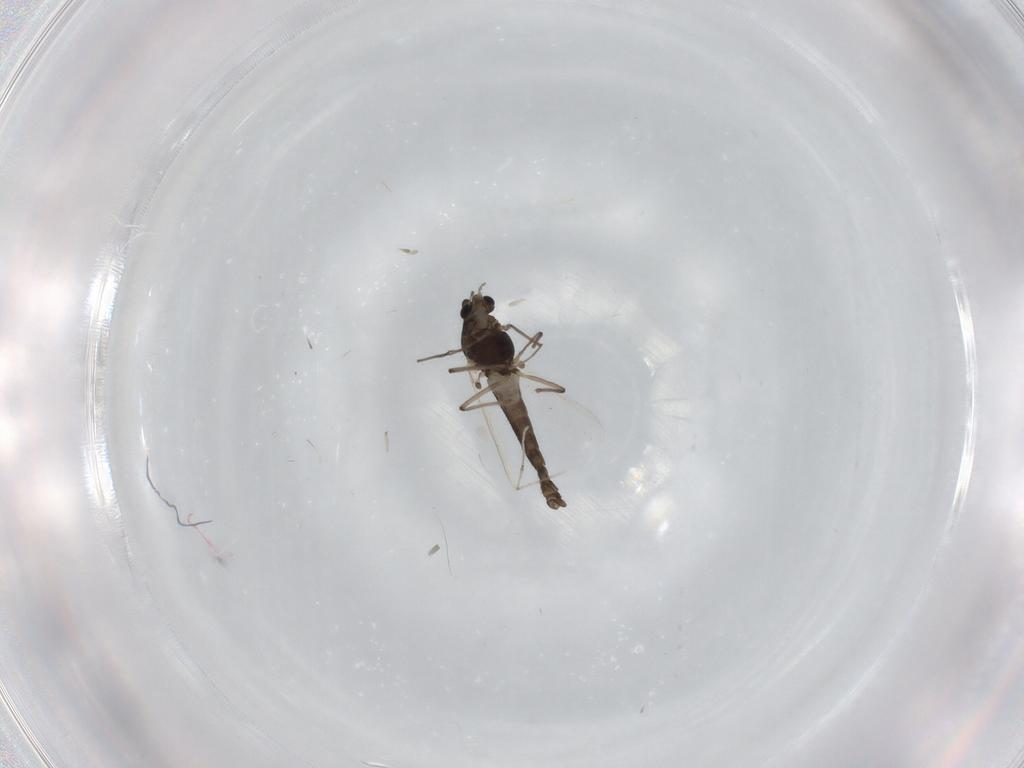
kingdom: Animalia
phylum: Arthropoda
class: Insecta
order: Diptera
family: Chironomidae
